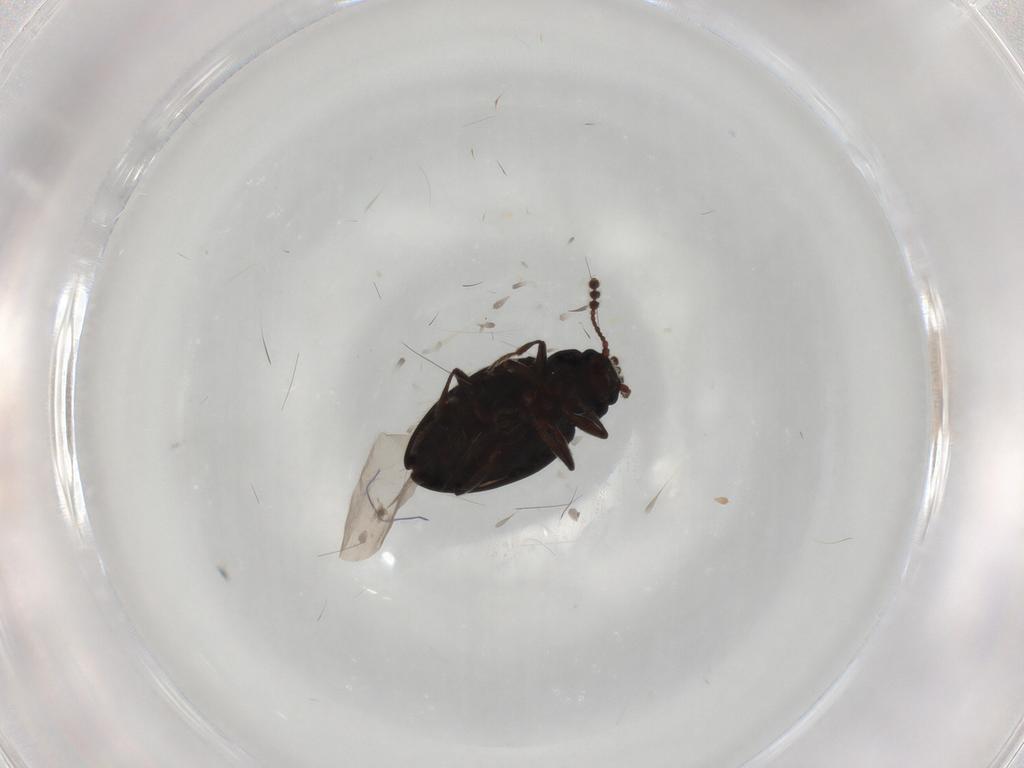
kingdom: Animalia
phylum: Arthropoda
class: Insecta
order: Coleoptera
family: Erotylidae
